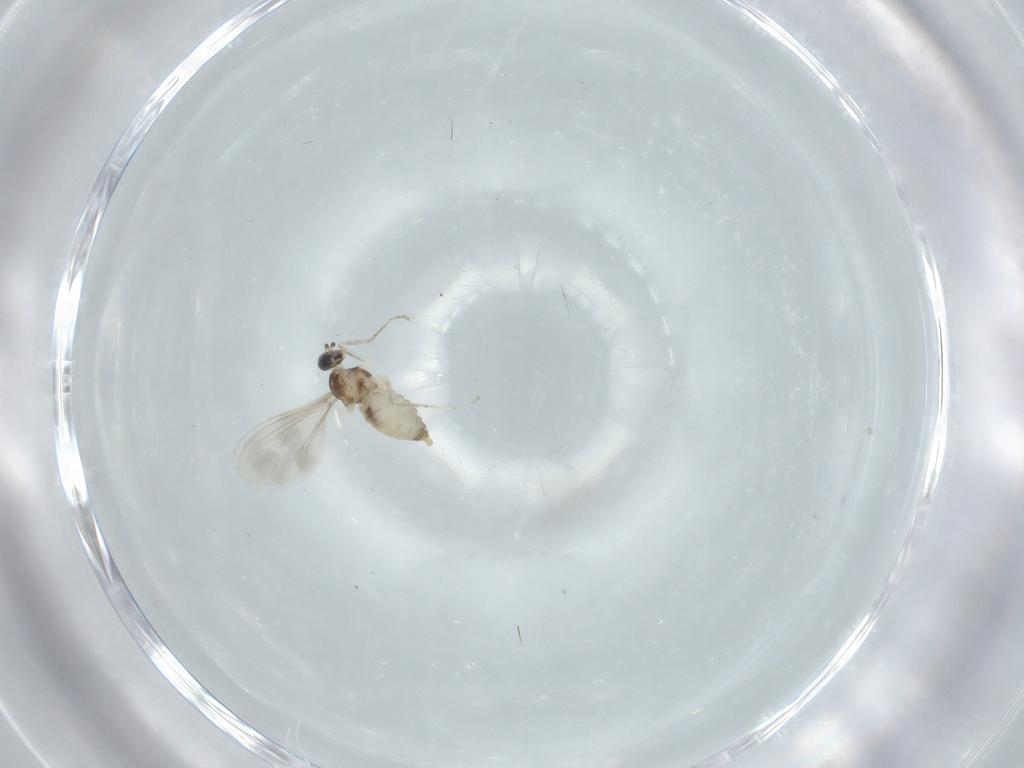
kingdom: Animalia
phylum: Arthropoda
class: Insecta
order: Diptera
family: Cecidomyiidae
